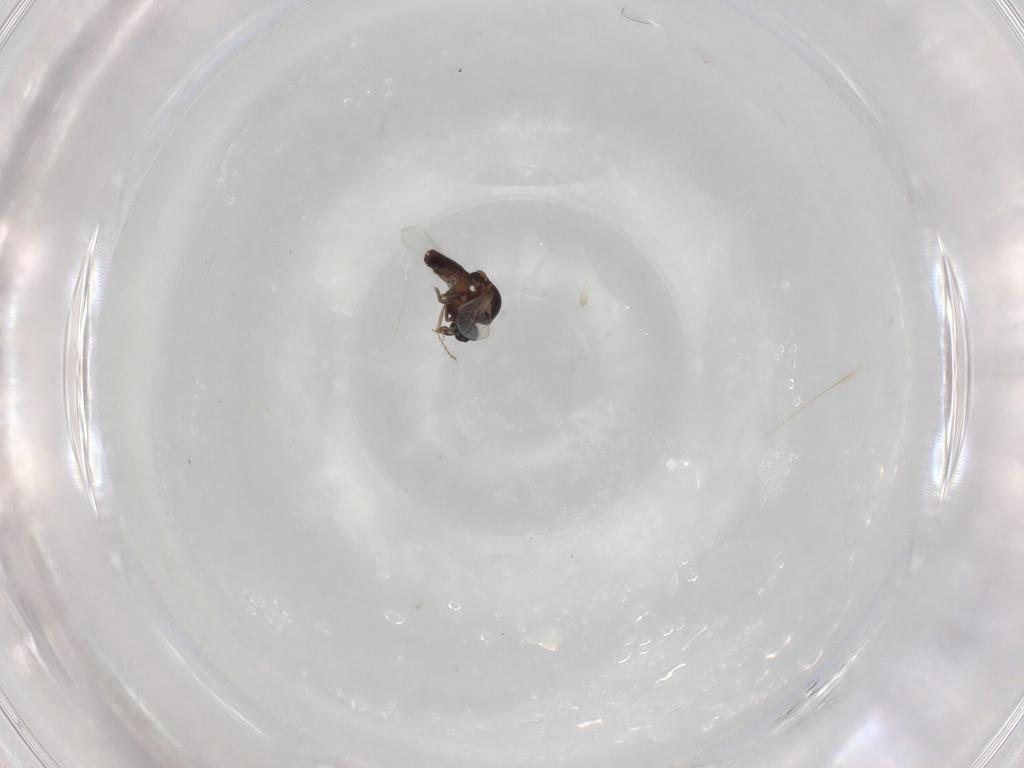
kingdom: Animalia
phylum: Arthropoda
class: Insecta
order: Diptera
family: Ceratopogonidae
